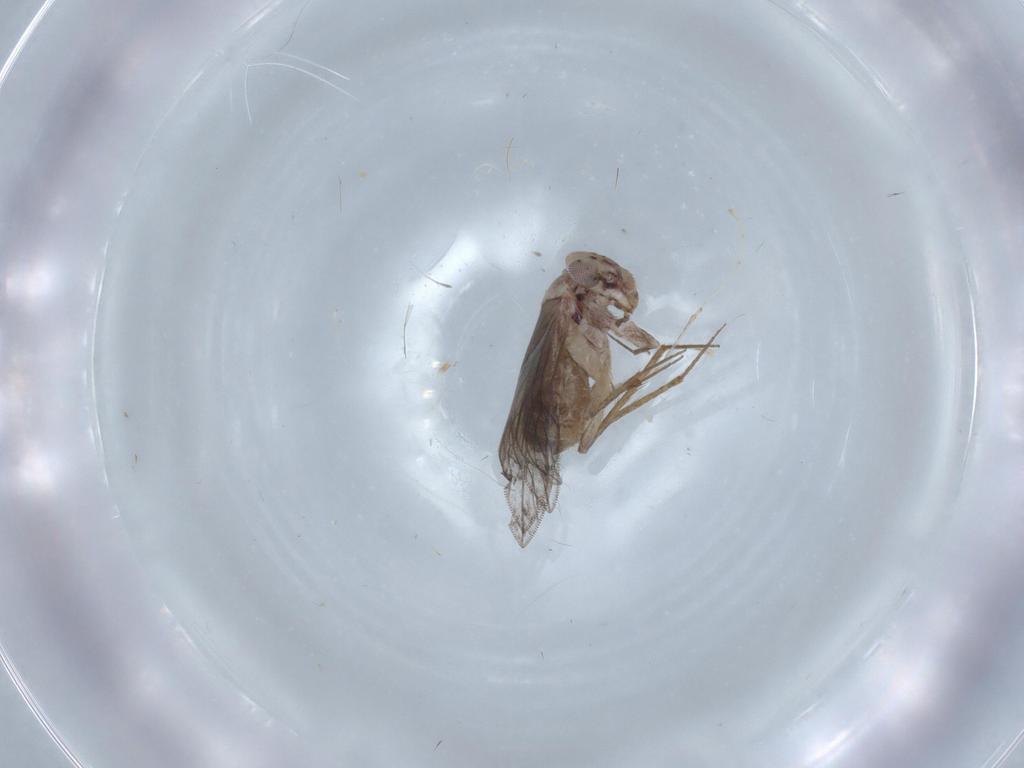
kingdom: Animalia
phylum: Arthropoda
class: Insecta
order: Psocodea
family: Lepidopsocidae
